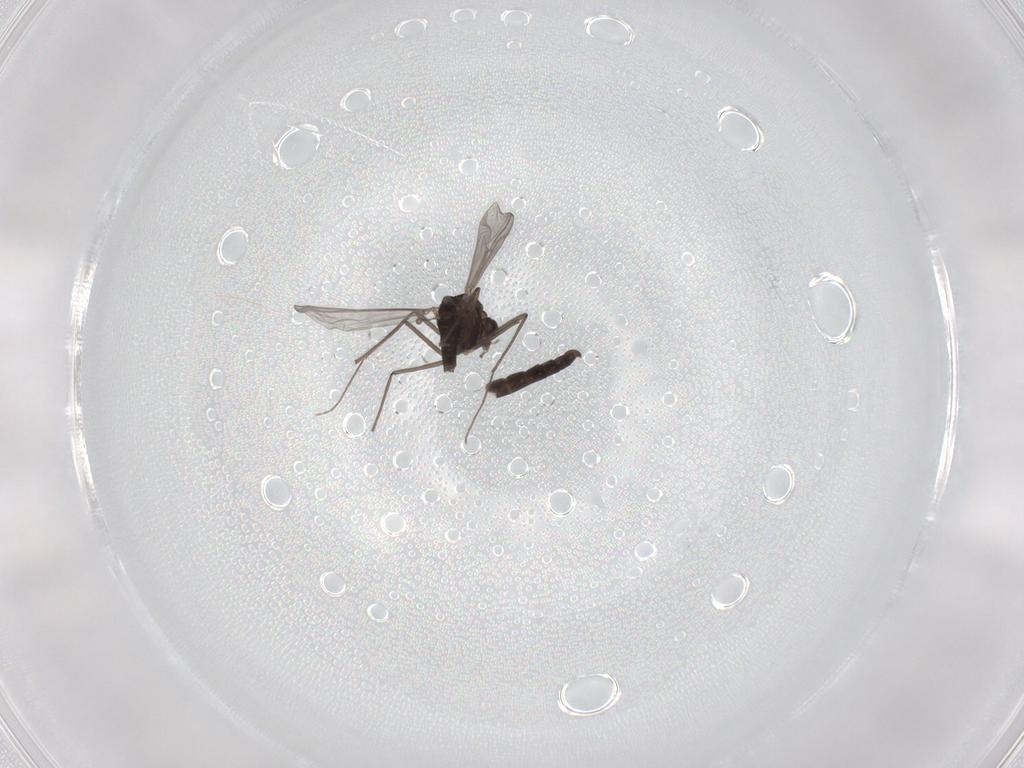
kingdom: Animalia
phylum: Arthropoda
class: Insecta
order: Diptera
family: Chironomidae
